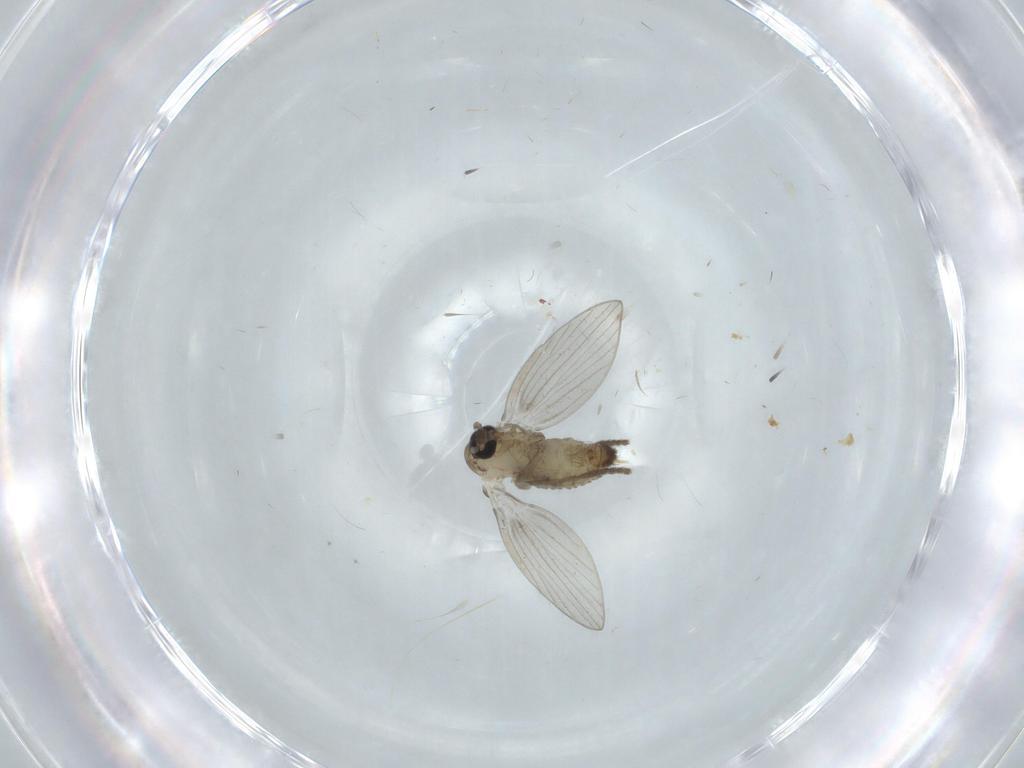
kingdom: Animalia
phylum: Arthropoda
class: Insecta
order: Diptera
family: Psychodidae
